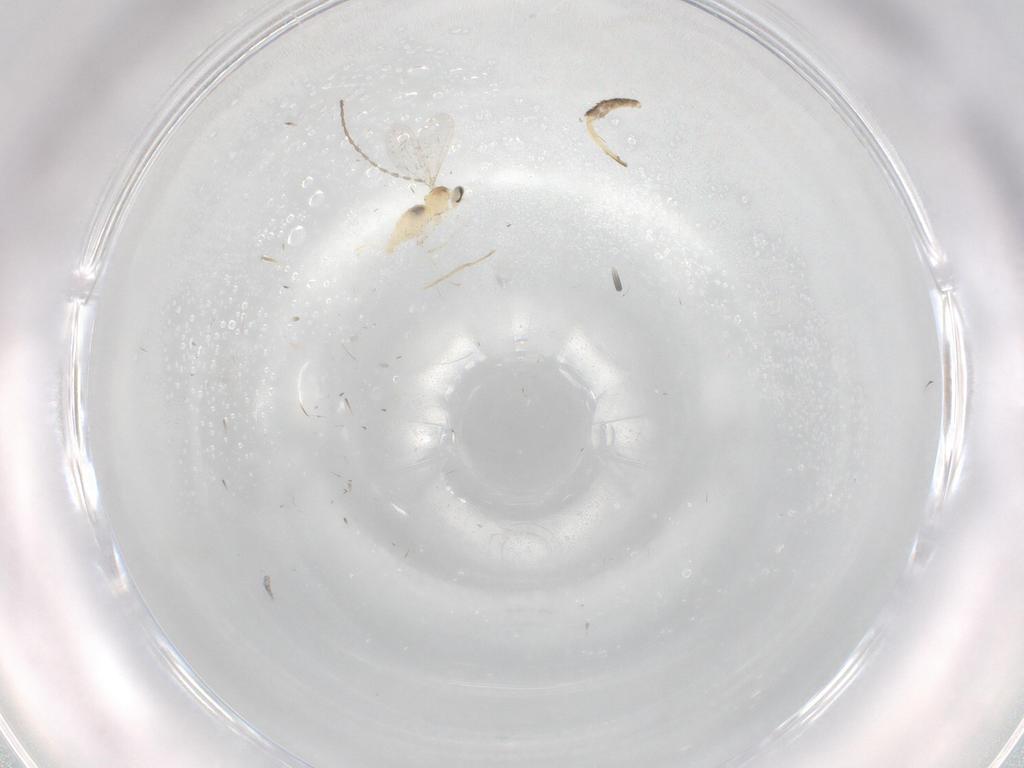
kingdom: Animalia
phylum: Arthropoda
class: Insecta
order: Diptera
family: Cecidomyiidae
